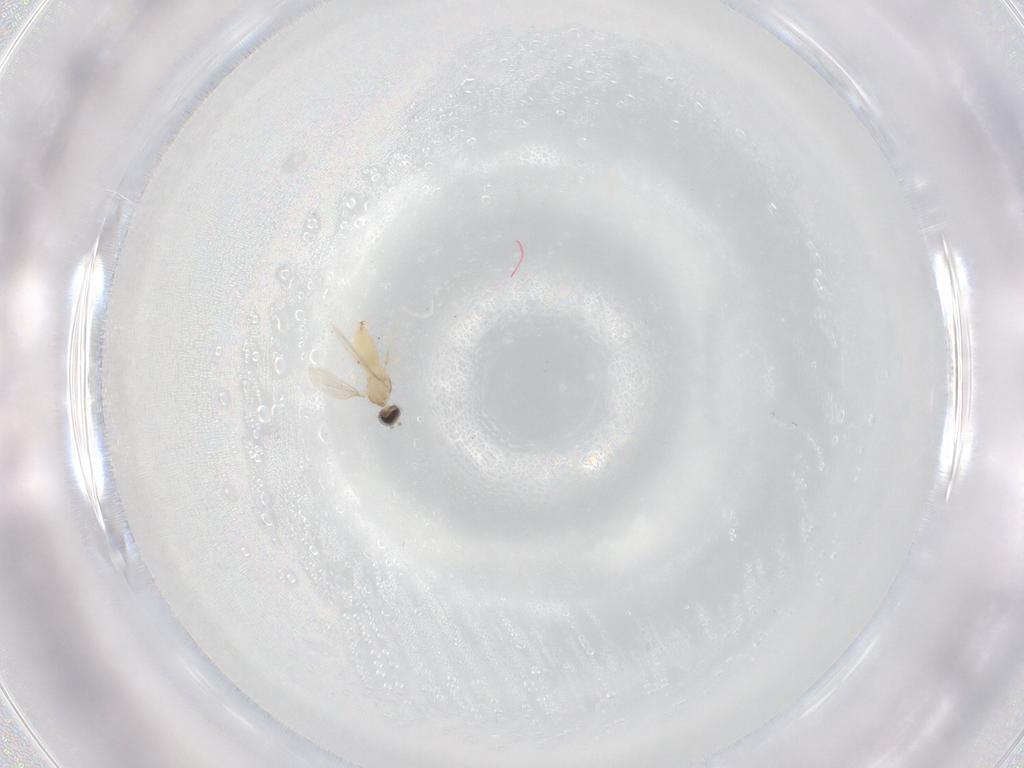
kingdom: Animalia
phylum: Arthropoda
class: Insecta
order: Diptera
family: Cecidomyiidae
